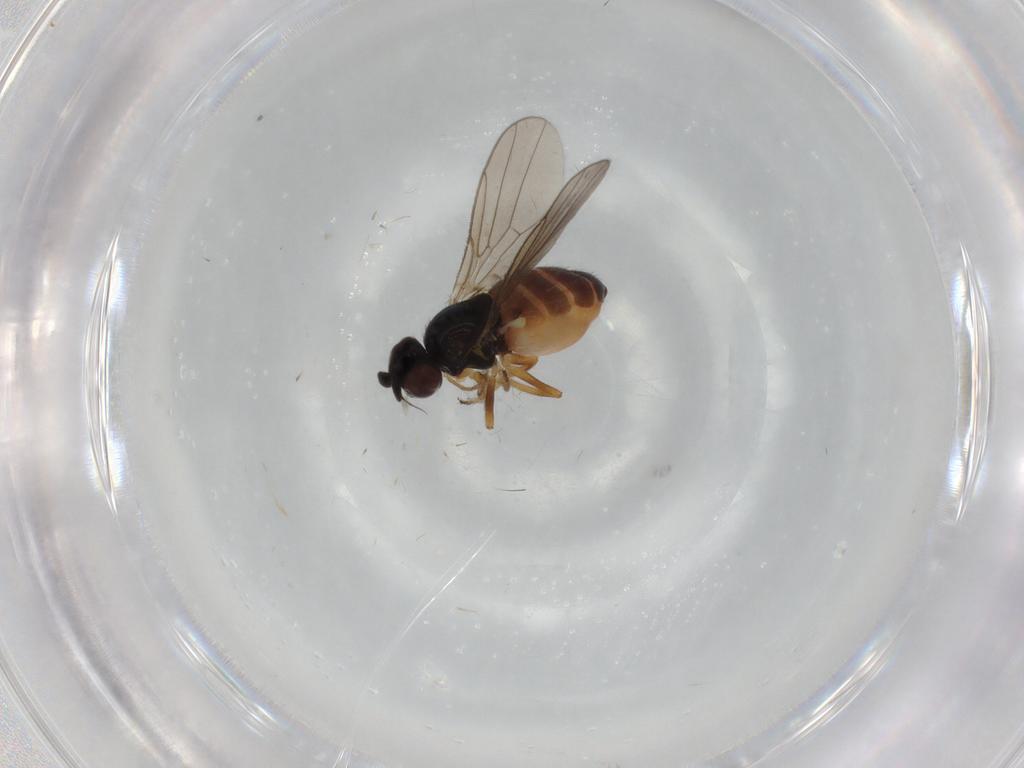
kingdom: Animalia
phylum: Arthropoda
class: Insecta
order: Diptera
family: Chloropidae
